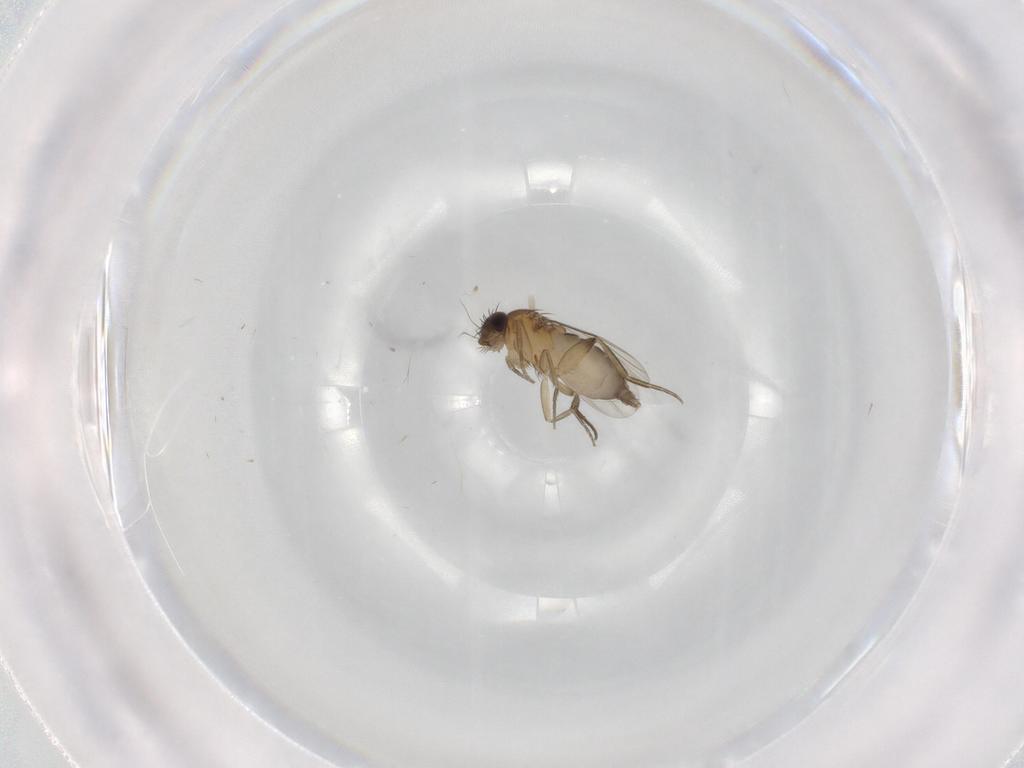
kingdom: Animalia
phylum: Arthropoda
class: Insecta
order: Diptera
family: Phoridae
